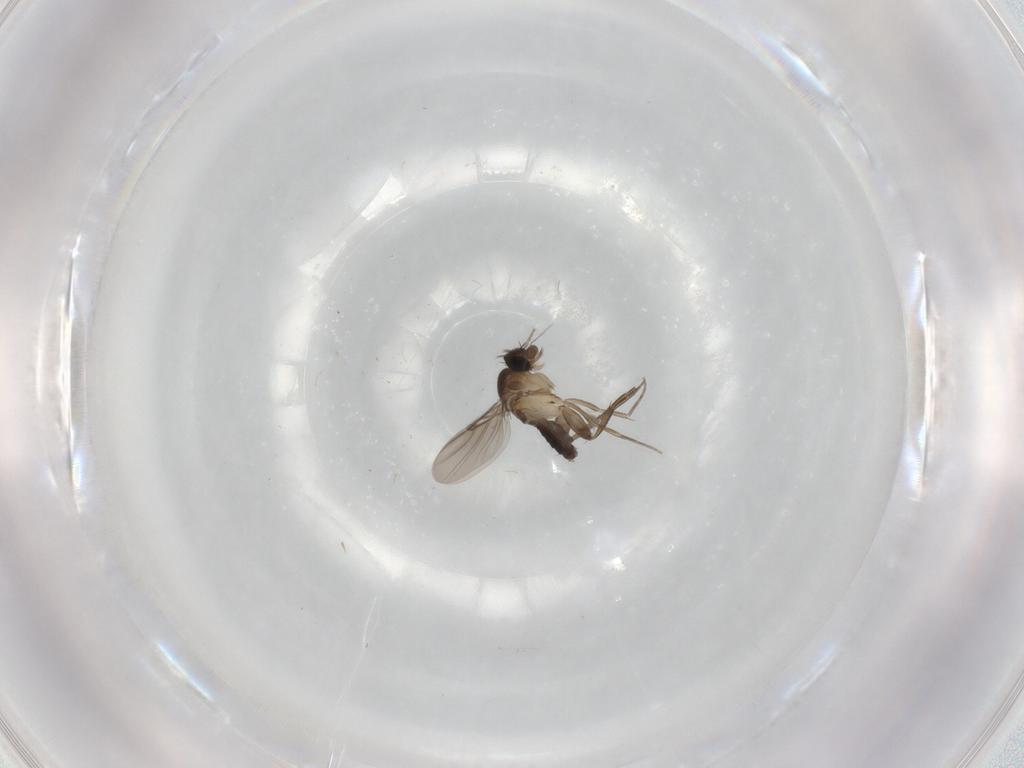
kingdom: Animalia
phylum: Arthropoda
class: Insecta
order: Diptera
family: Phoridae
